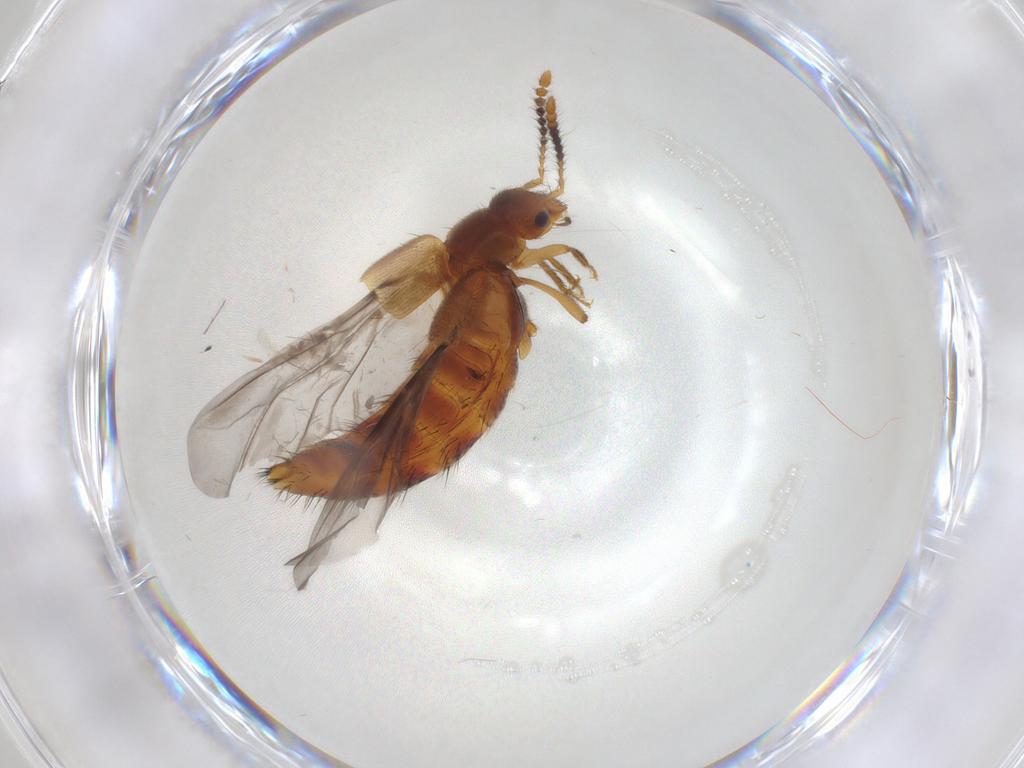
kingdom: Animalia
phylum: Arthropoda
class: Insecta
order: Coleoptera
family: Ptilodactylidae
